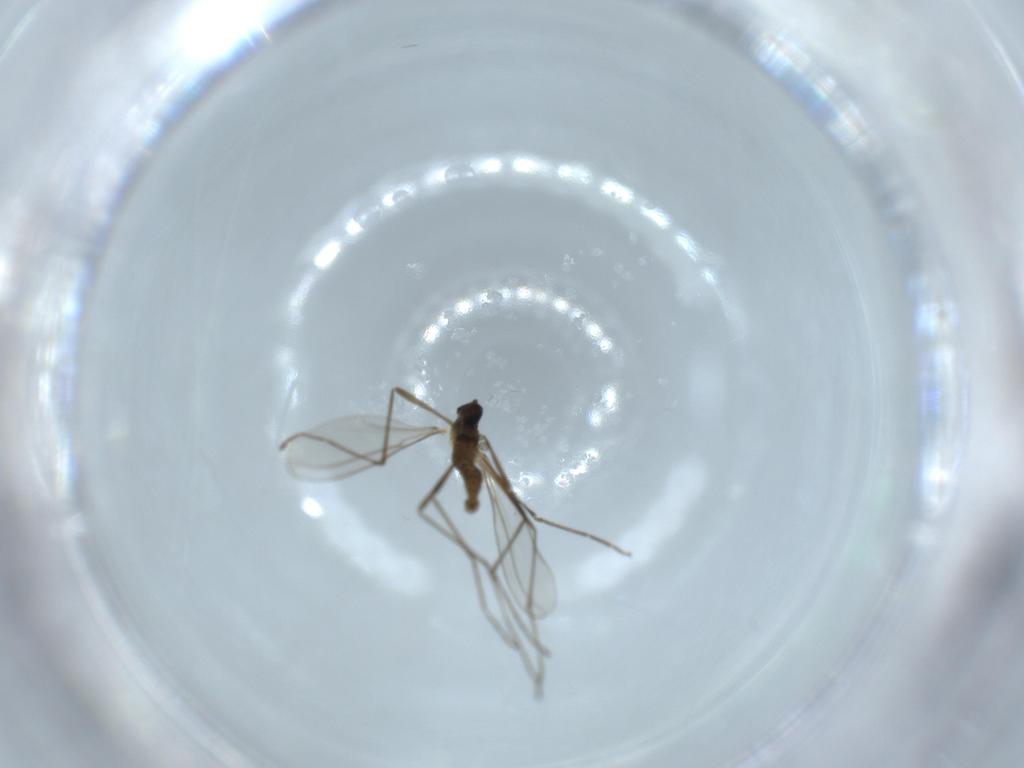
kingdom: Animalia
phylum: Arthropoda
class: Insecta
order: Diptera
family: Cecidomyiidae
